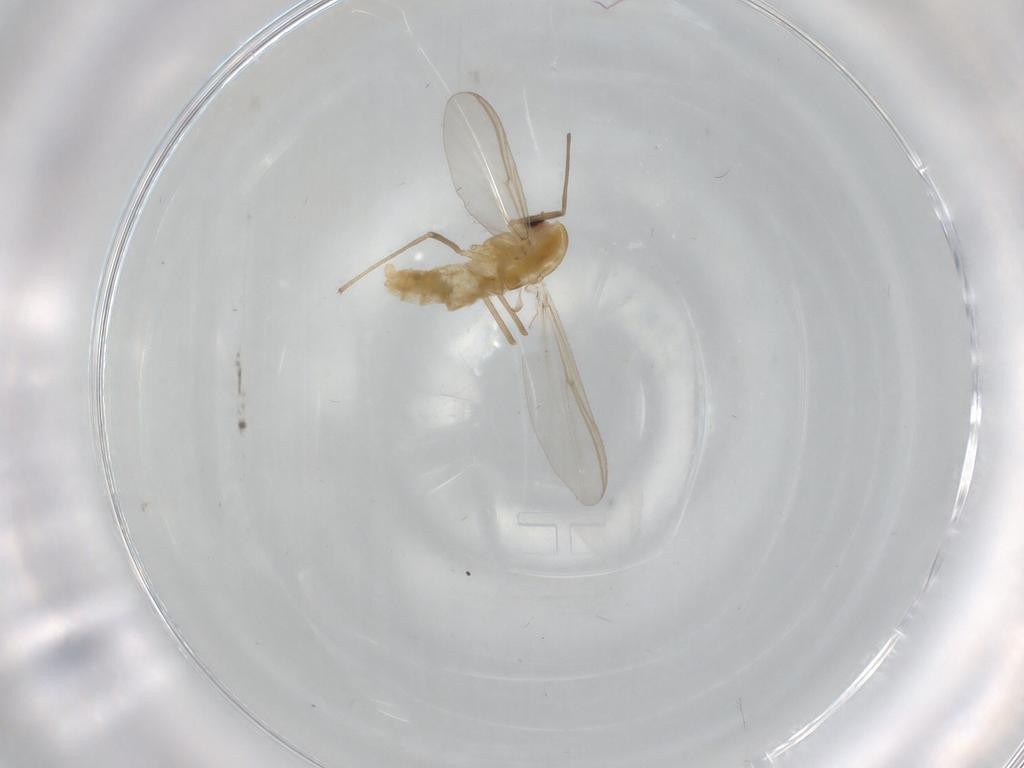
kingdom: Animalia
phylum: Arthropoda
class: Insecta
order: Diptera
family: Chironomidae
